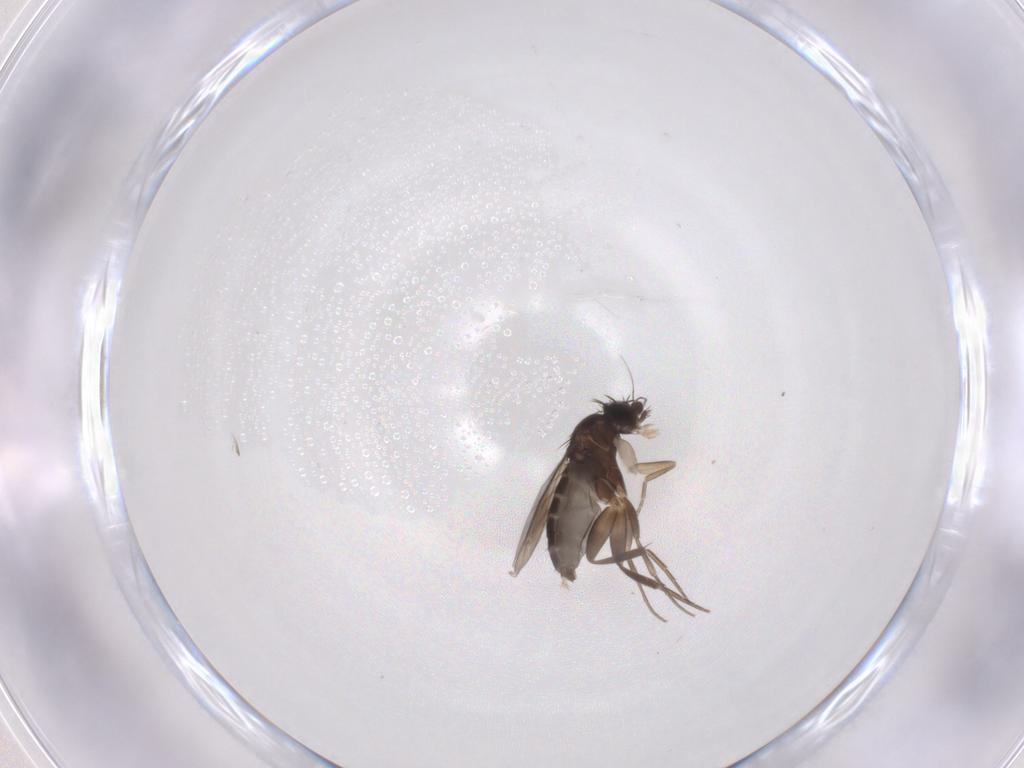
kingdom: Animalia
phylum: Arthropoda
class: Insecta
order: Diptera
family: Phoridae
